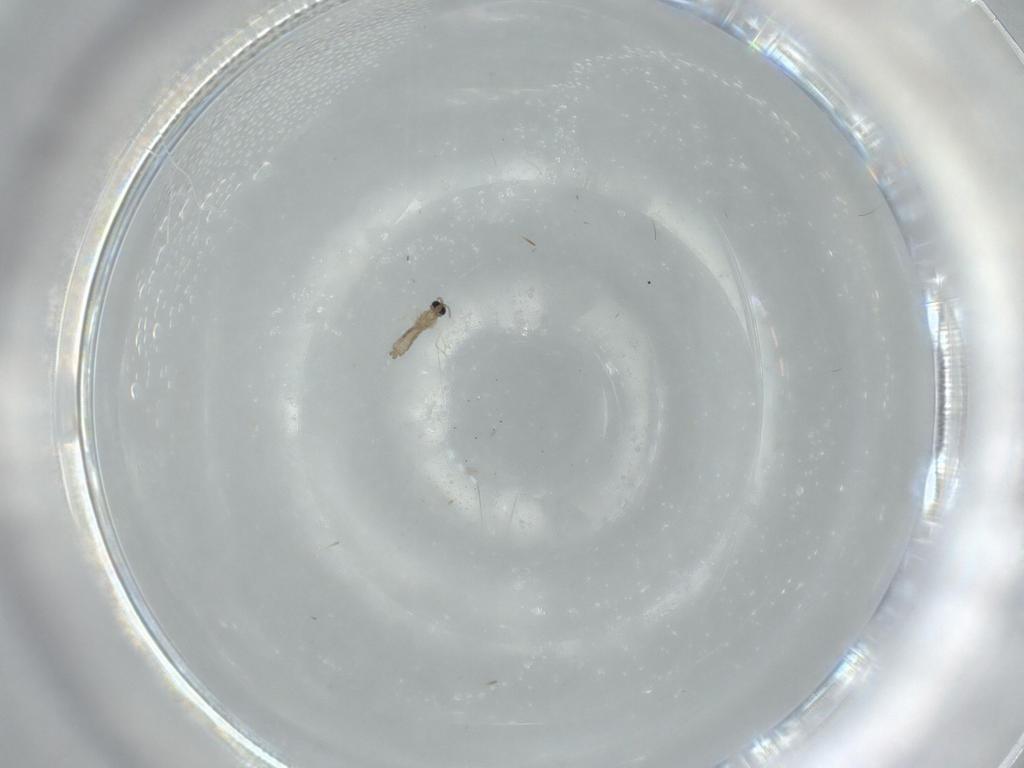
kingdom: Animalia
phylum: Arthropoda
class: Insecta
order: Diptera
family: Cecidomyiidae
